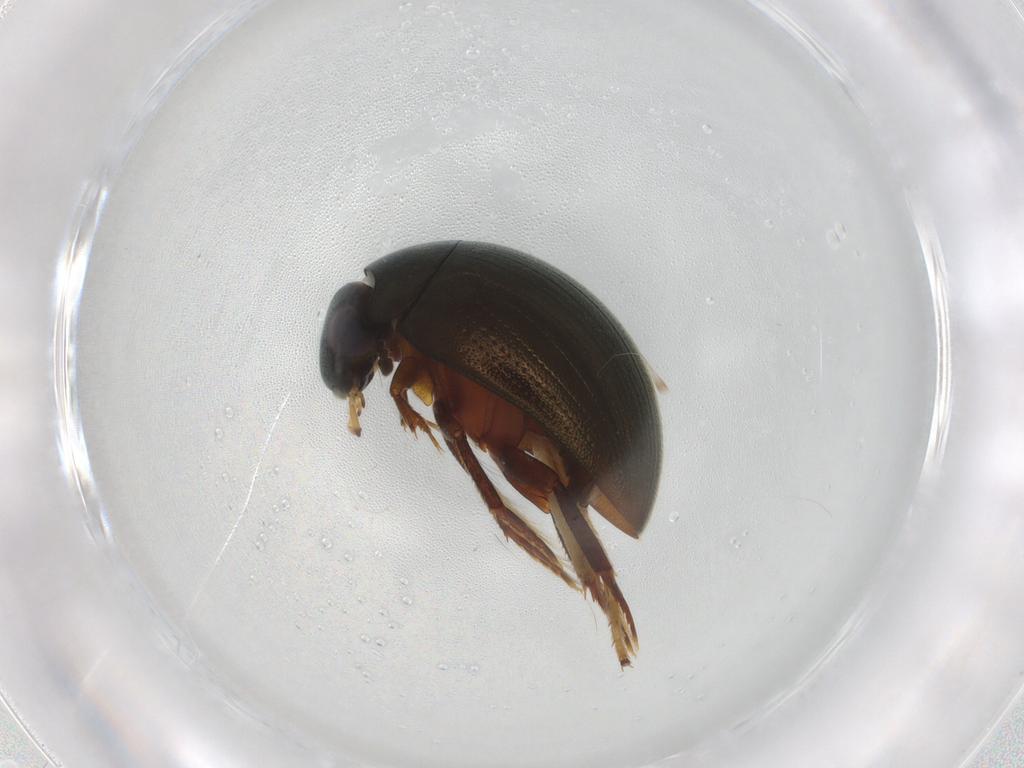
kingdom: Animalia
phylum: Arthropoda
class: Insecta
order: Coleoptera
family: Hydrophilidae
